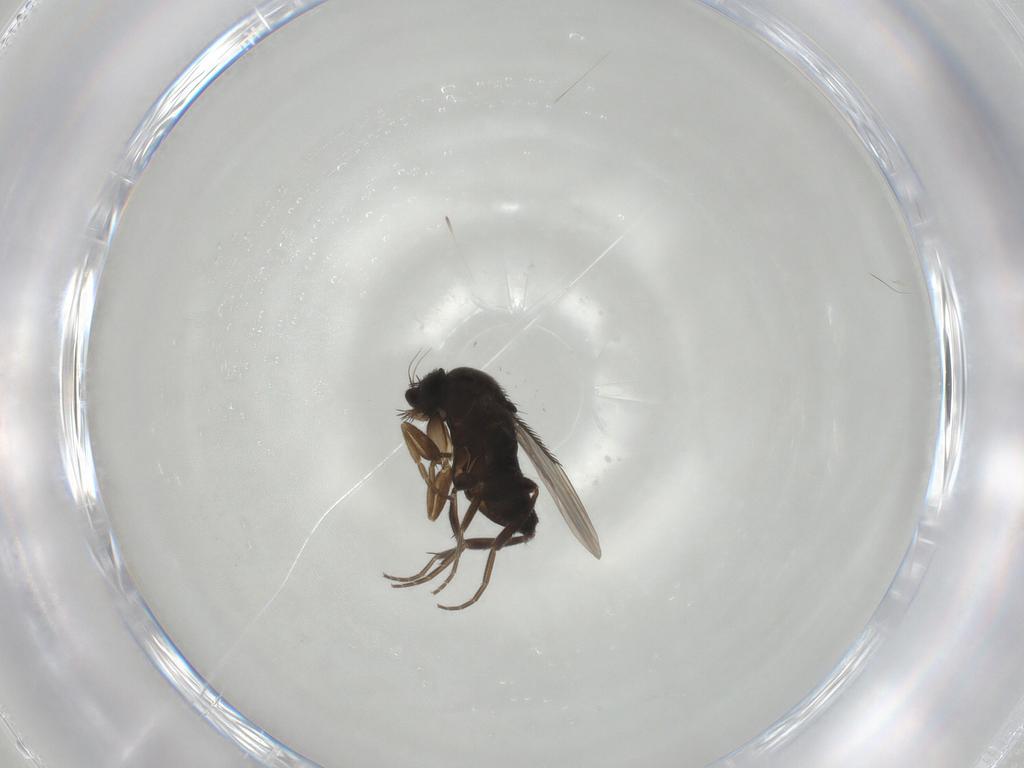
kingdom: Animalia
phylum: Arthropoda
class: Insecta
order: Diptera
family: Phoridae
